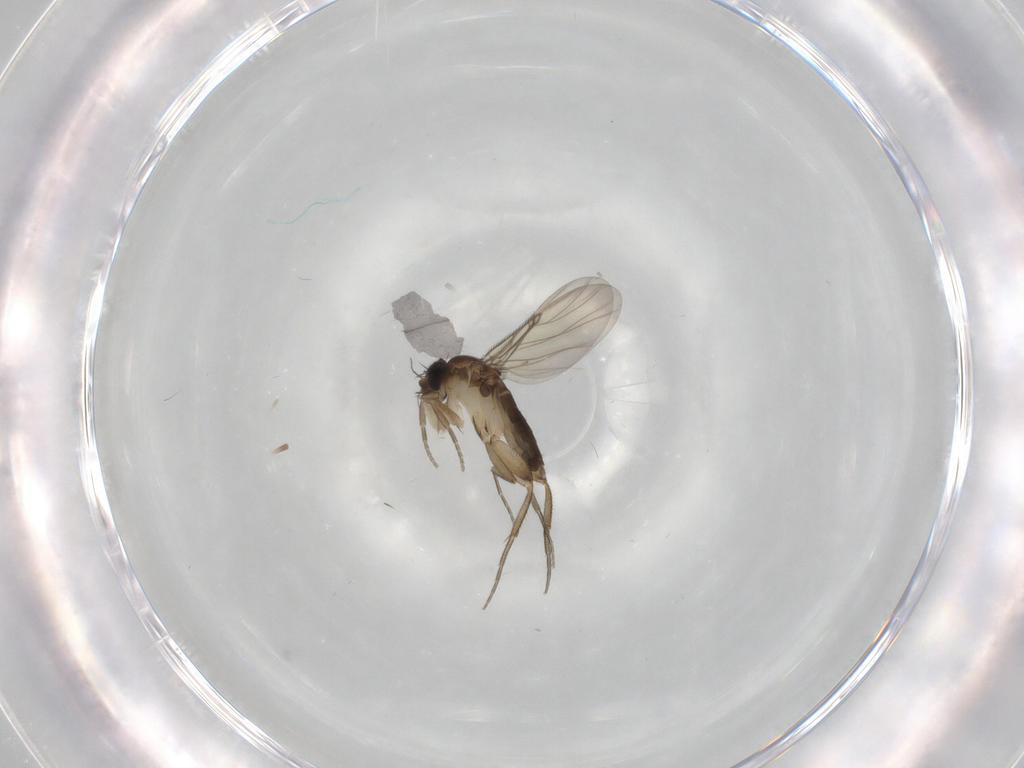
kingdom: Animalia
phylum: Arthropoda
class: Insecta
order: Diptera
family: Phoridae
